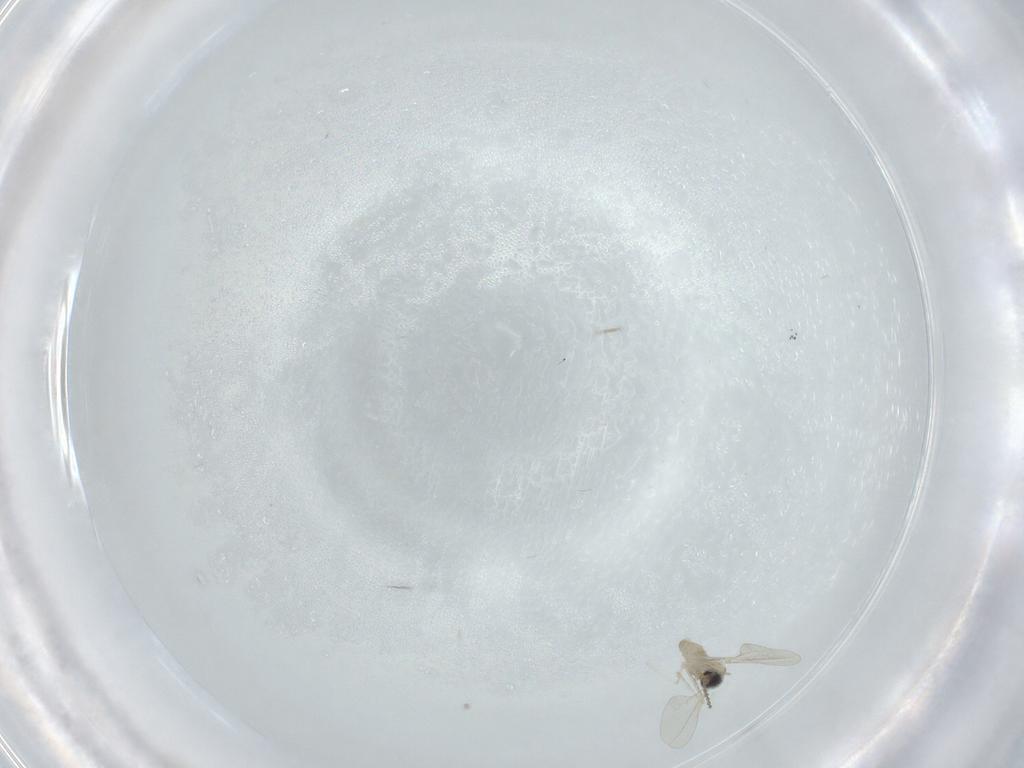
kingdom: Animalia
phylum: Arthropoda
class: Insecta
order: Diptera
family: Cecidomyiidae
